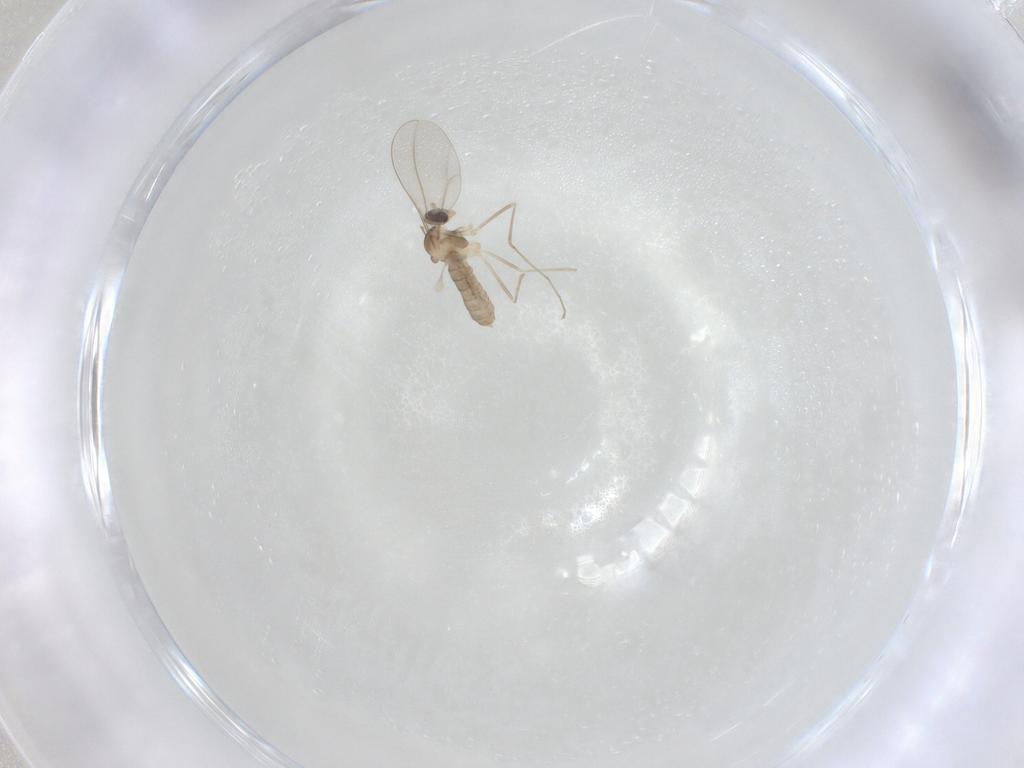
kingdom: Animalia
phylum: Arthropoda
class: Insecta
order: Diptera
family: Cecidomyiidae
